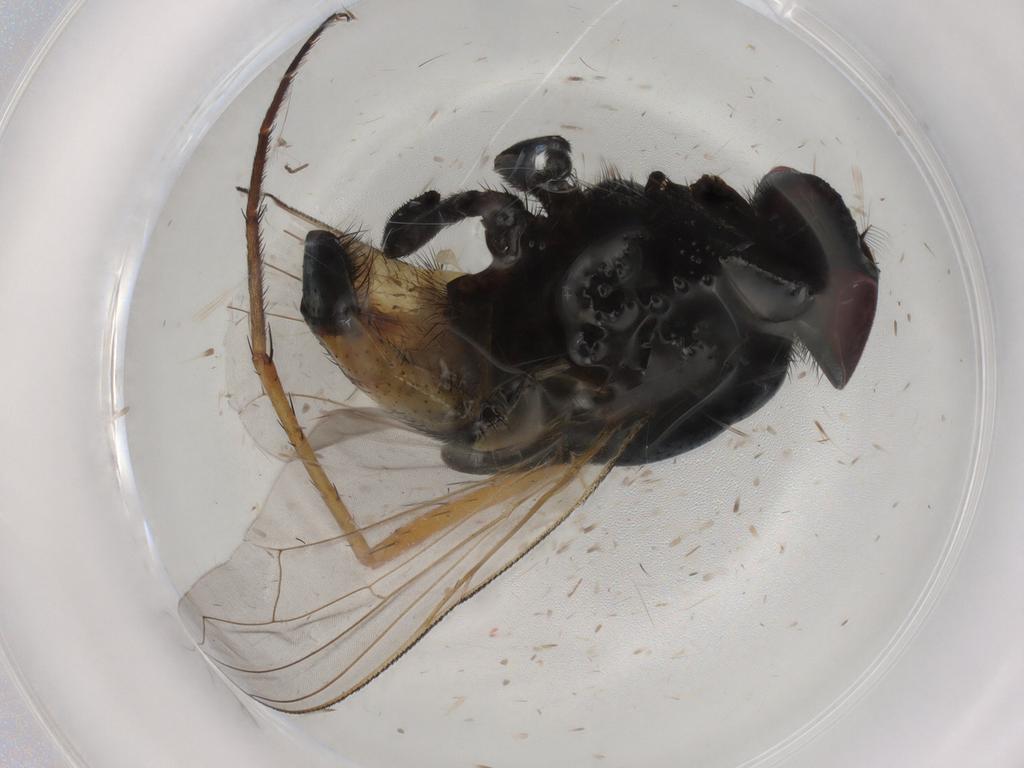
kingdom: Animalia
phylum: Arthropoda
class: Insecta
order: Diptera
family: Muscidae
